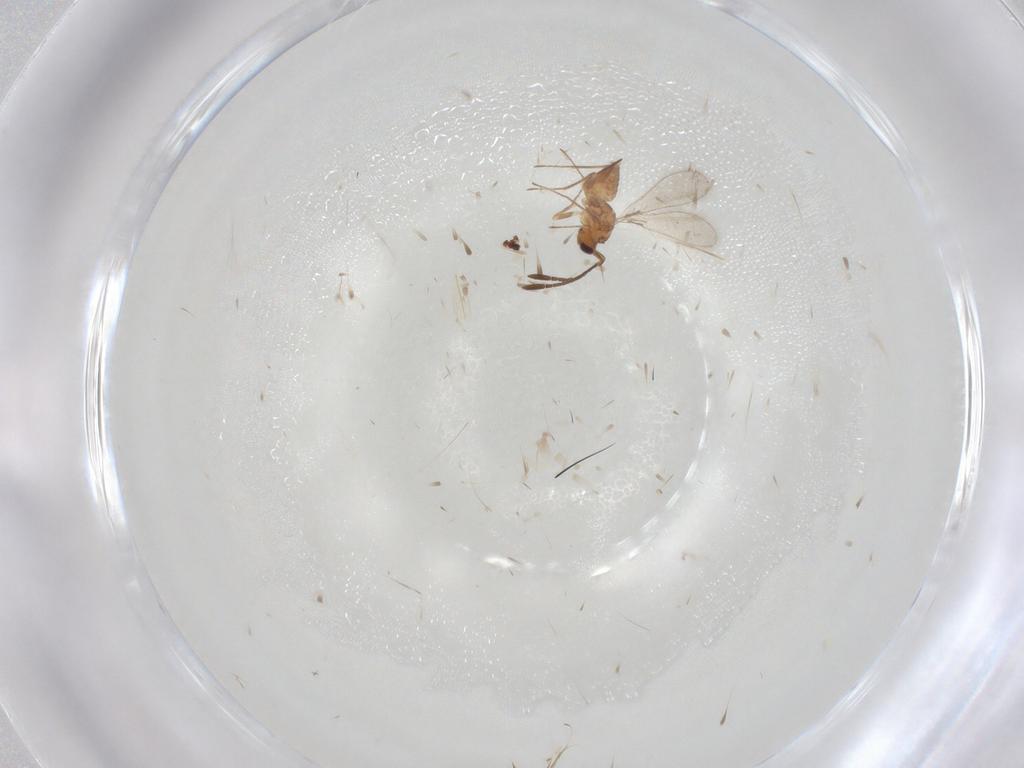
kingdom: Animalia
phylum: Arthropoda
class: Insecta
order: Hymenoptera
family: Mymaridae
